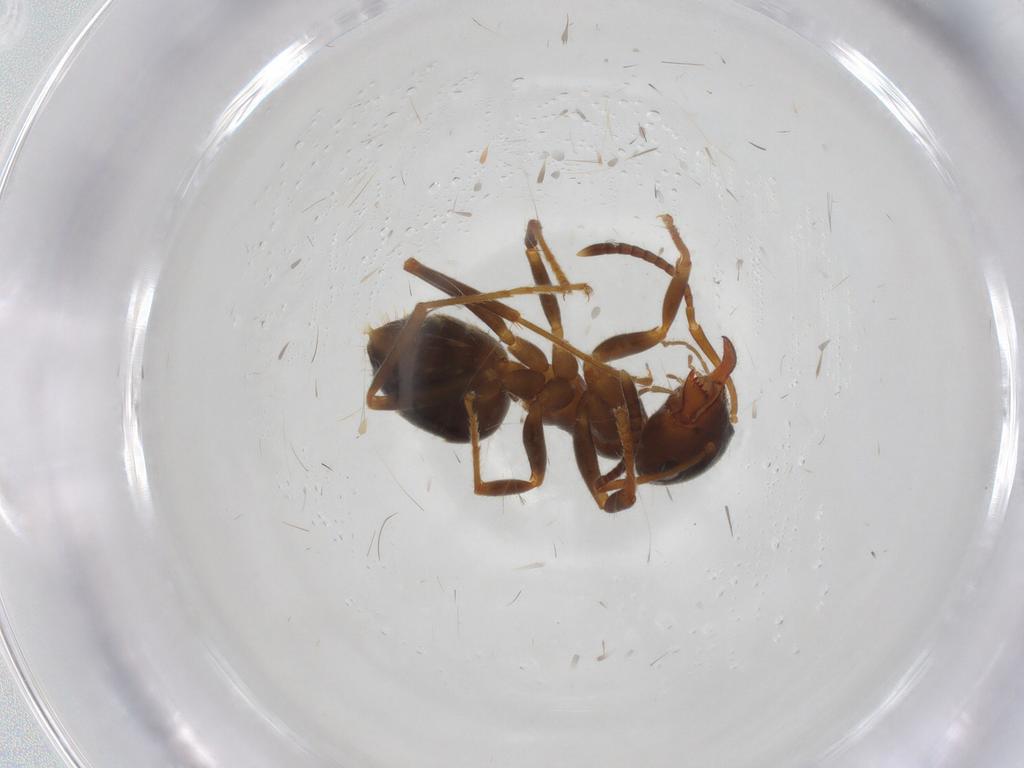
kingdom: Animalia
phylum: Arthropoda
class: Insecta
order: Hymenoptera
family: Formicidae
